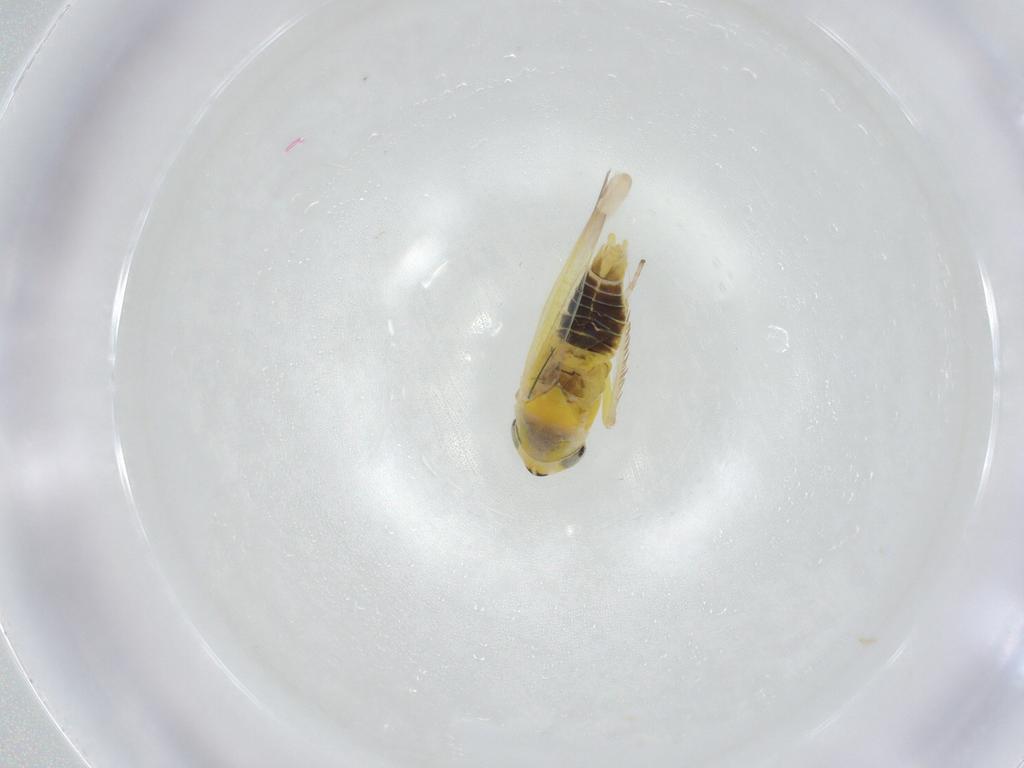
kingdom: Animalia
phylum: Arthropoda
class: Insecta
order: Hemiptera
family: Cicadellidae
